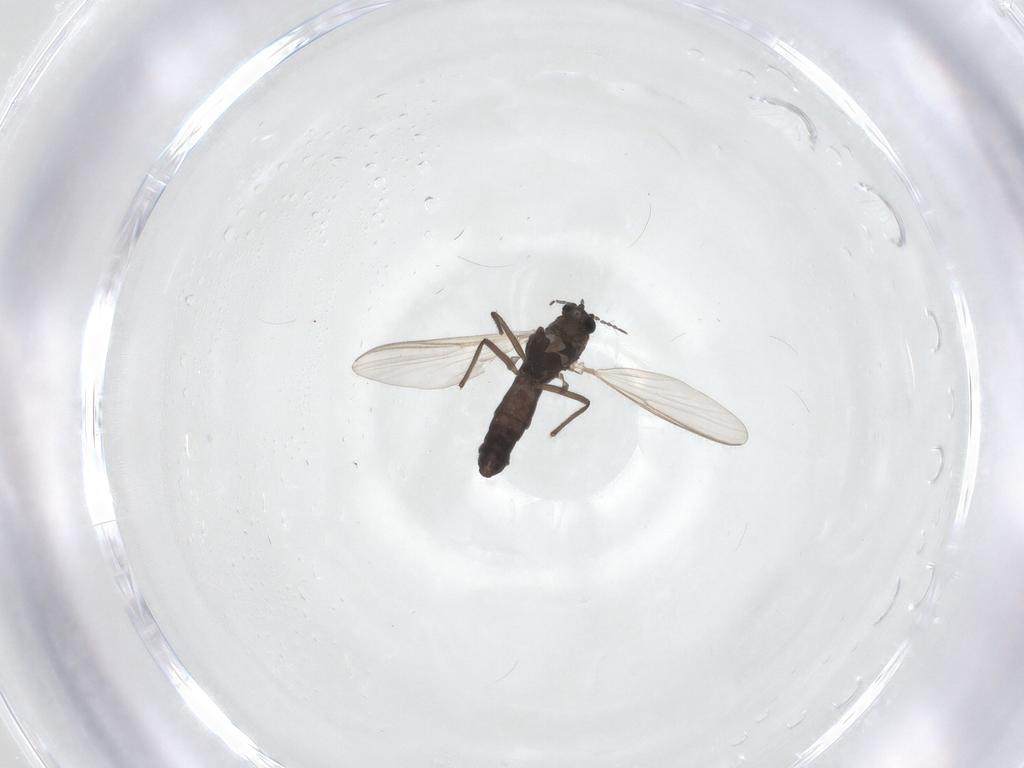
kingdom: Animalia
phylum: Arthropoda
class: Insecta
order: Diptera
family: Chironomidae
